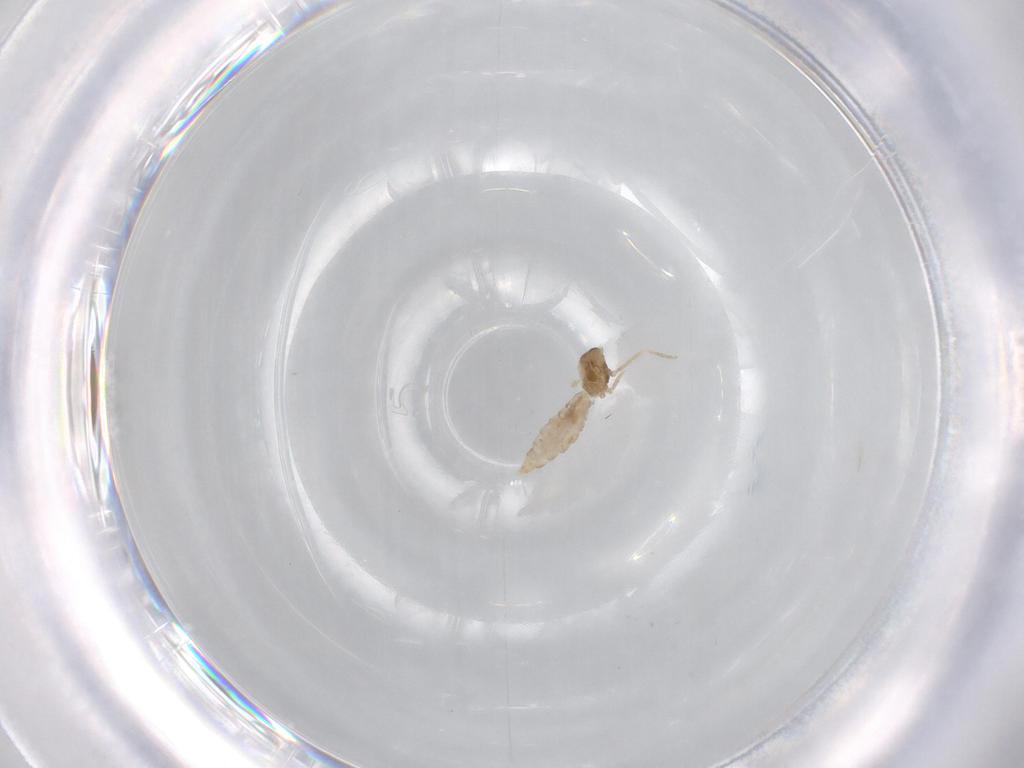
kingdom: Animalia
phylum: Arthropoda
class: Insecta
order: Diptera
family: Cecidomyiidae
